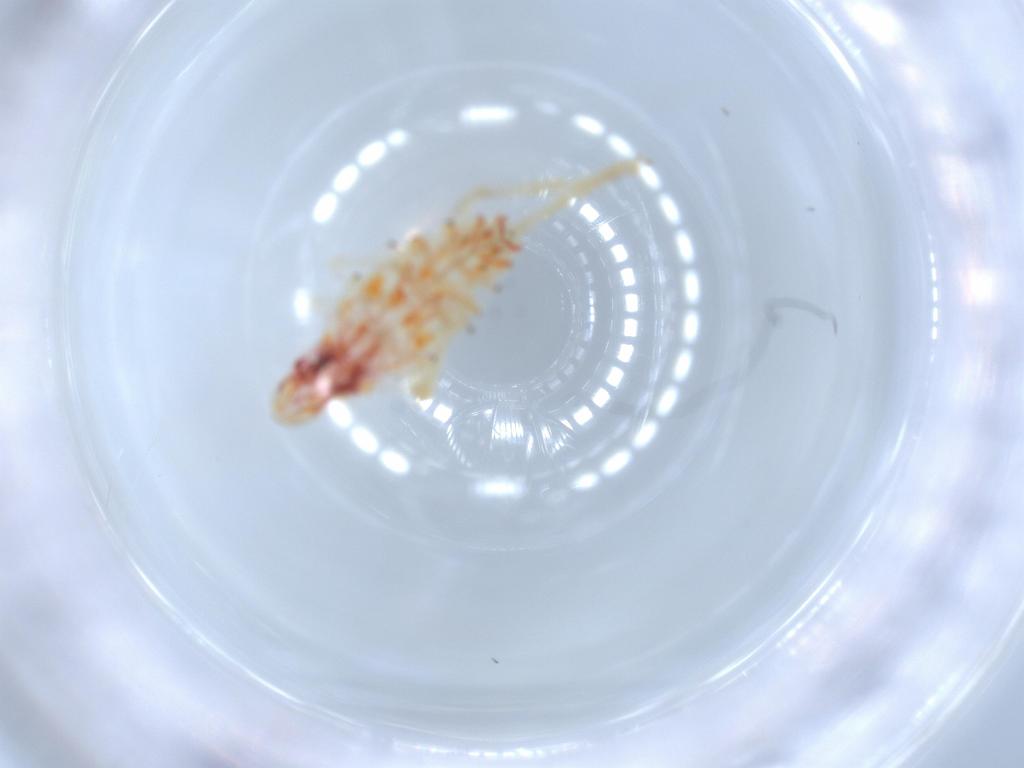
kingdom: Animalia
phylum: Arthropoda
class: Insecta
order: Hemiptera
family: Tropiduchidae
